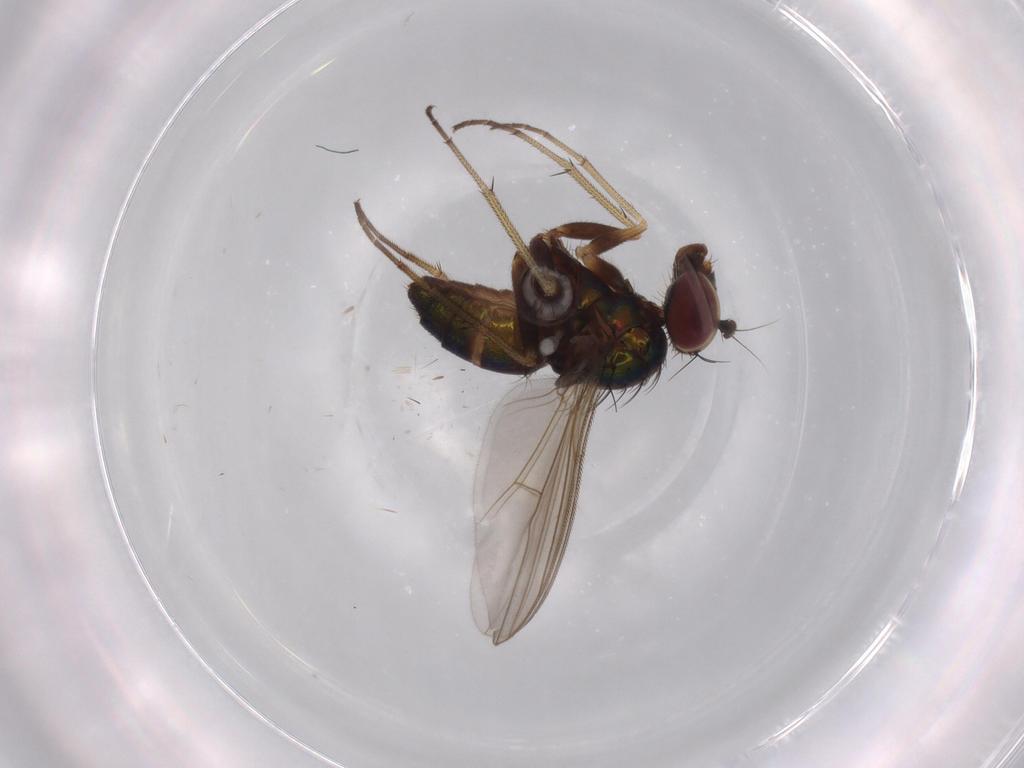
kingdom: Animalia
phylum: Arthropoda
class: Insecta
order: Diptera
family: Dolichopodidae
